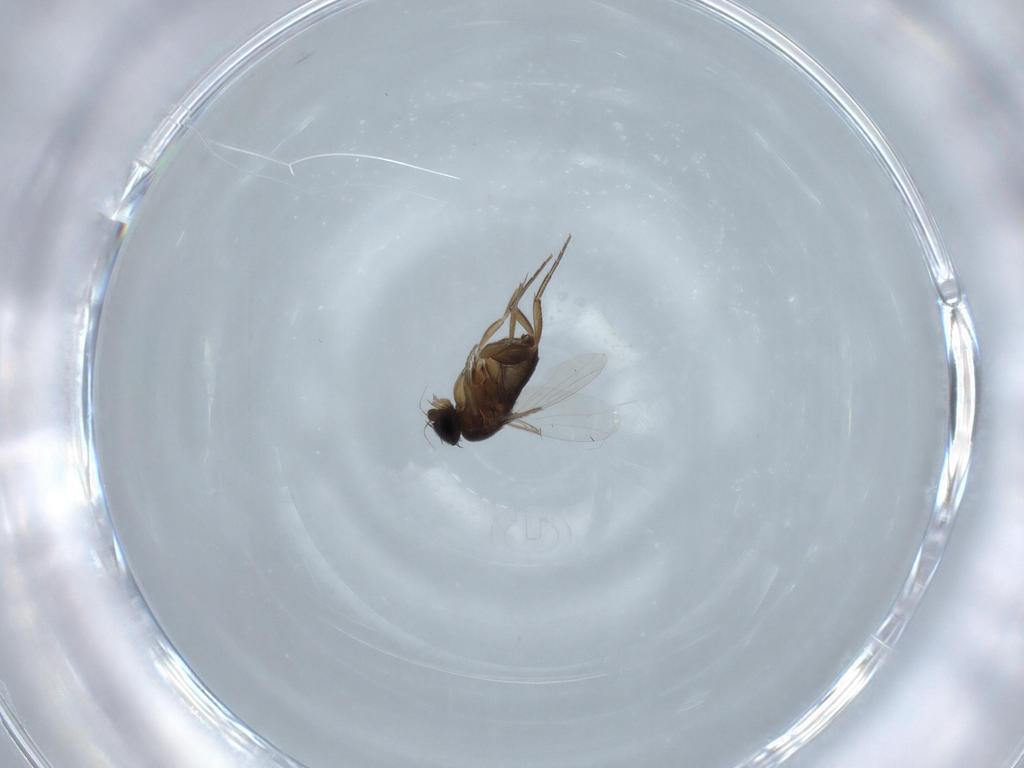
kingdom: Animalia
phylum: Arthropoda
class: Insecta
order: Diptera
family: Phoridae
